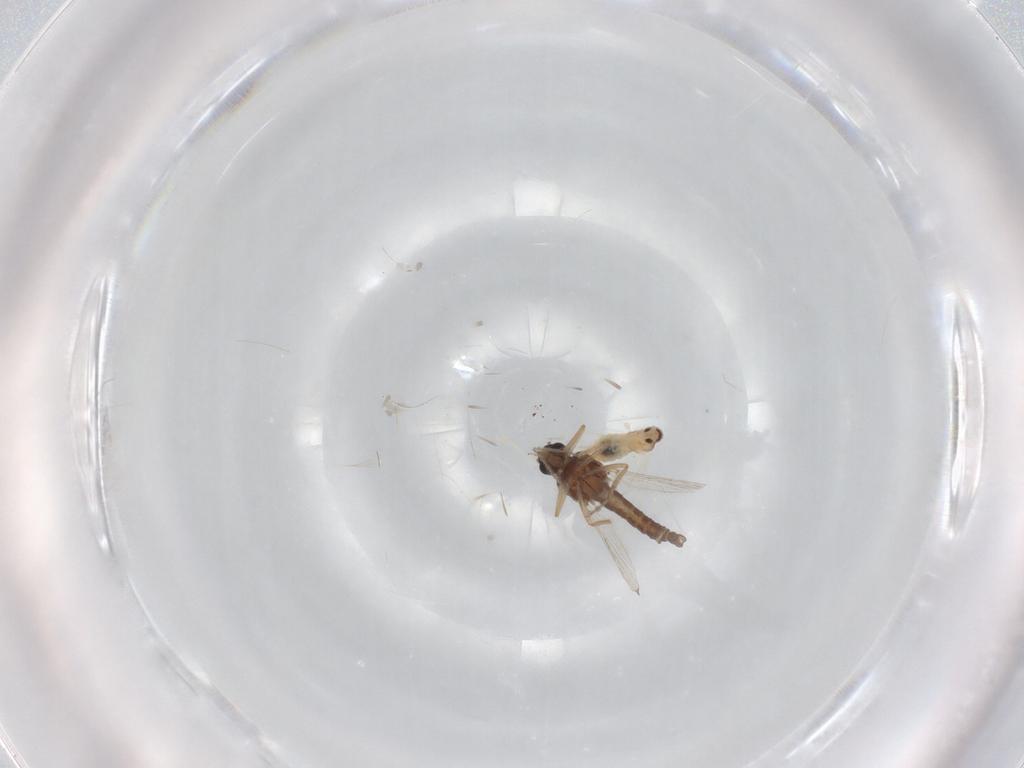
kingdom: Animalia
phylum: Arthropoda
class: Insecta
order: Diptera
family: Cecidomyiidae
